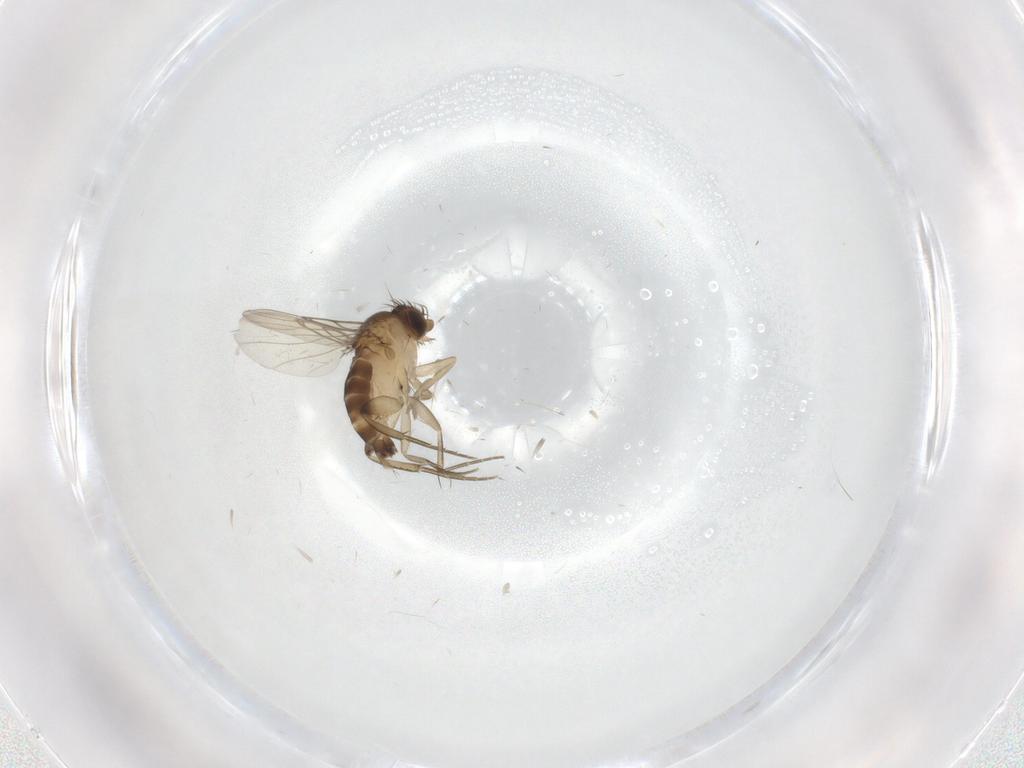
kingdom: Animalia
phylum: Arthropoda
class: Insecta
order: Diptera
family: Phoridae
